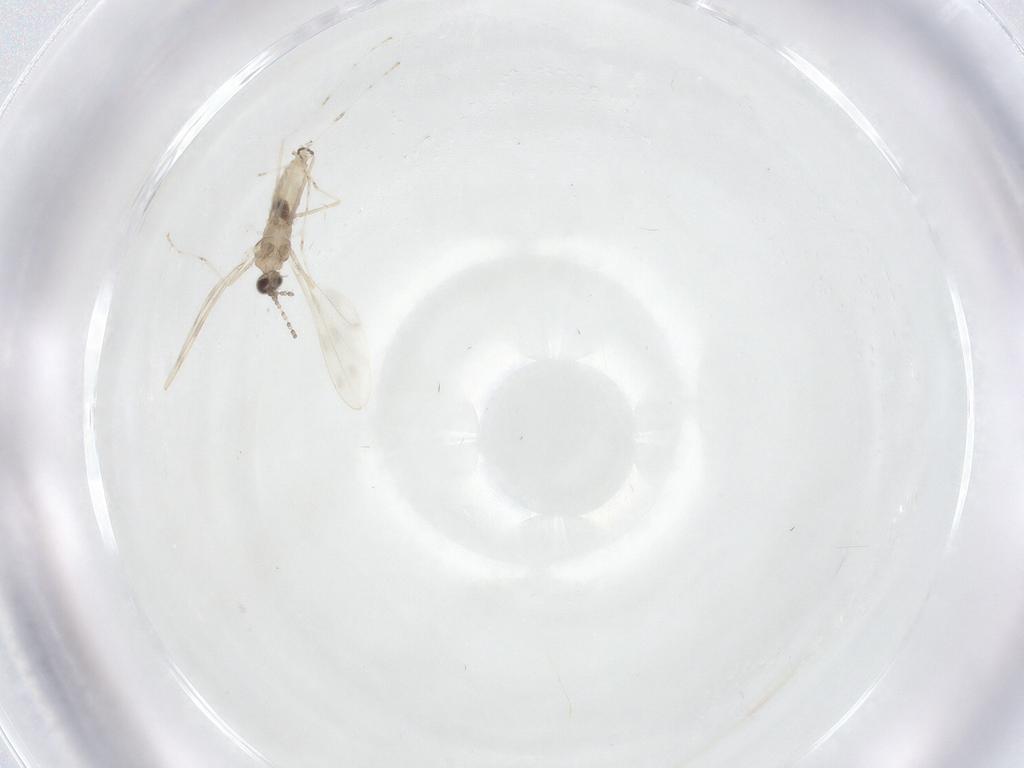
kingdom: Animalia
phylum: Arthropoda
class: Insecta
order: Diptera
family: Cecidomyiidae
